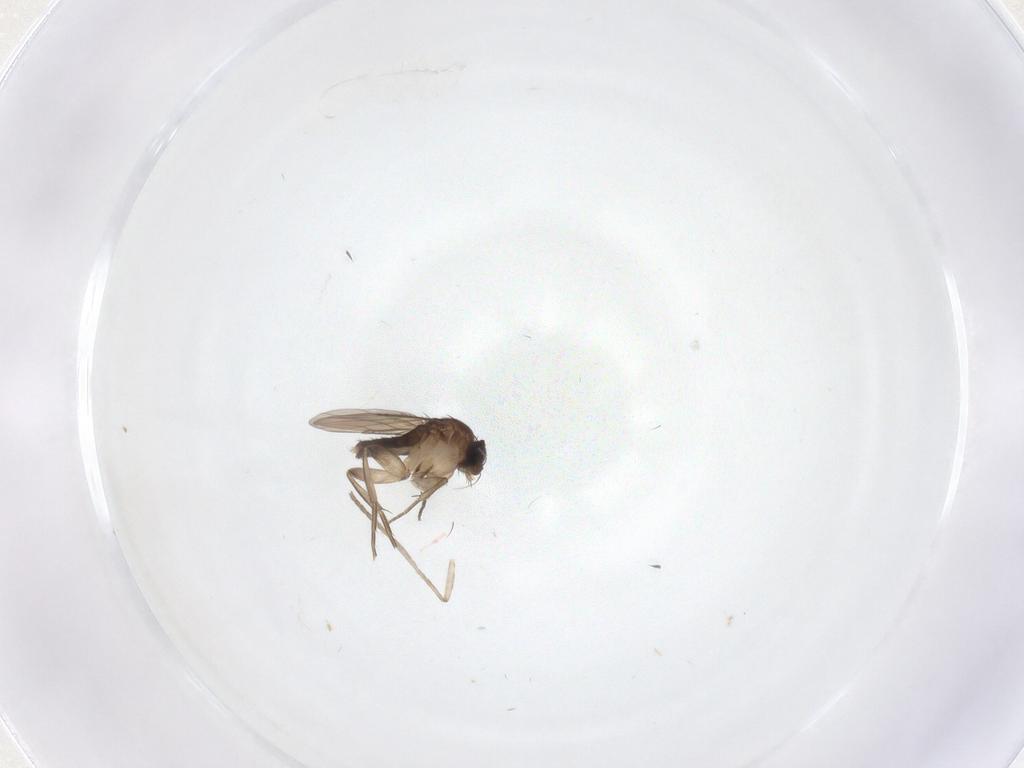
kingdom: Animalia
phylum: Arthropoda
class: Insecta
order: Diptera
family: Phoridae
